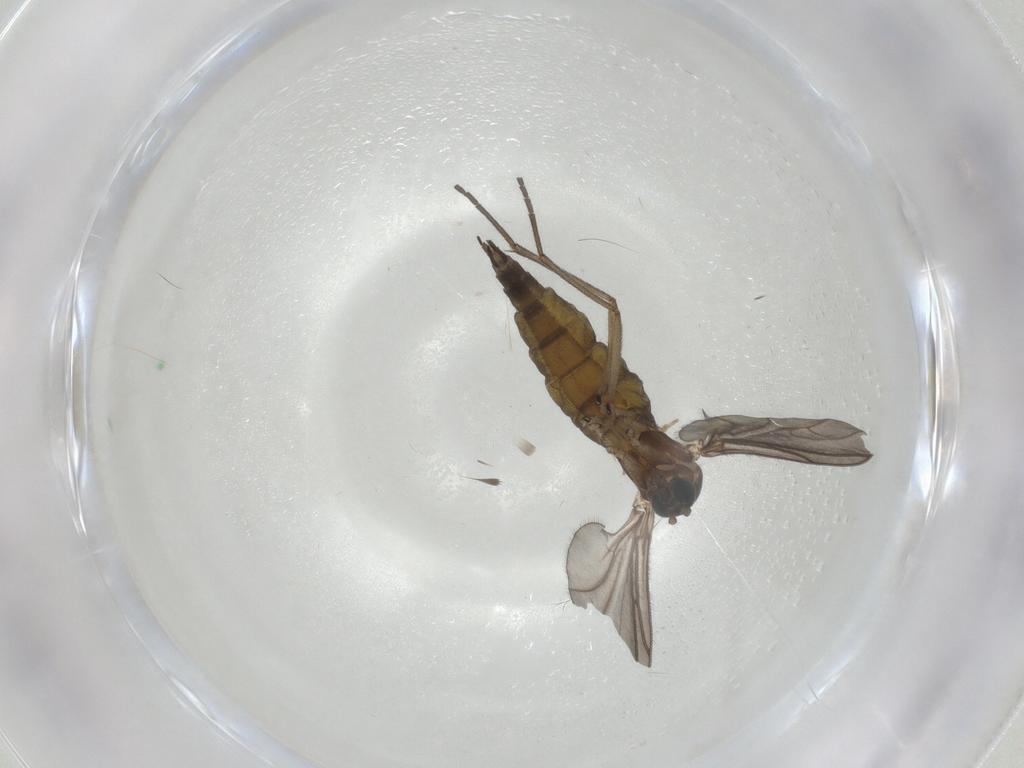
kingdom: Animalia
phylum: Arthropoda
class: Insecta
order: Diptera
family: Sciaridae
